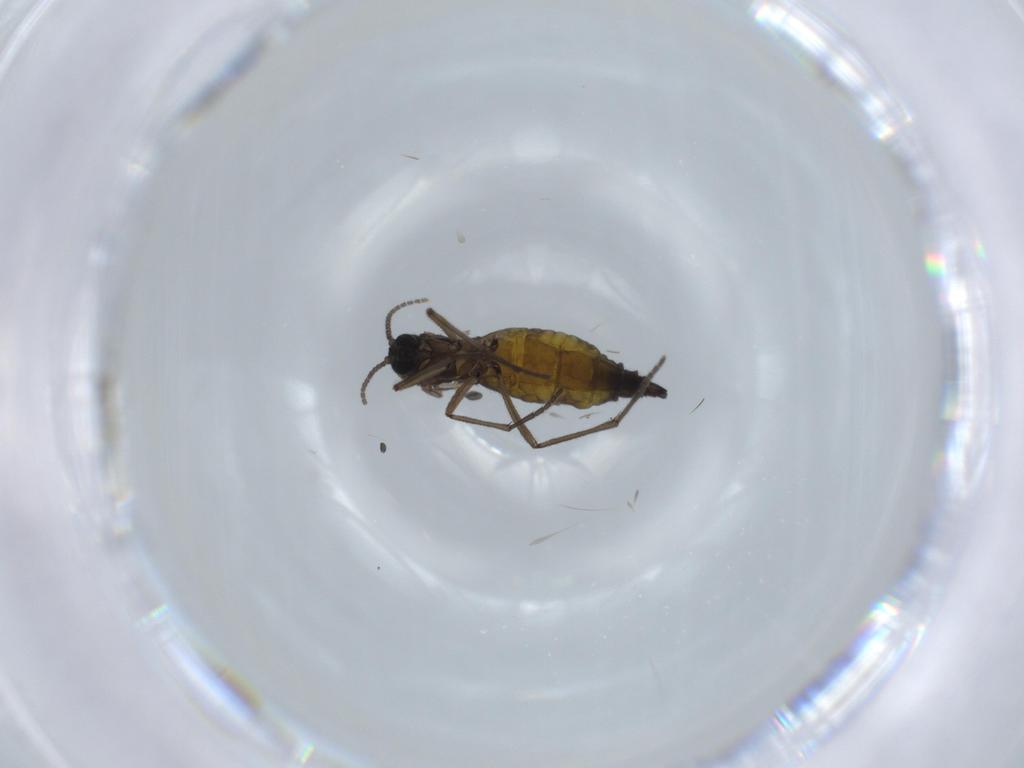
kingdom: Animalia
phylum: Arthropoda
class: Insecta
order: Diptera
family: Sciaridae
